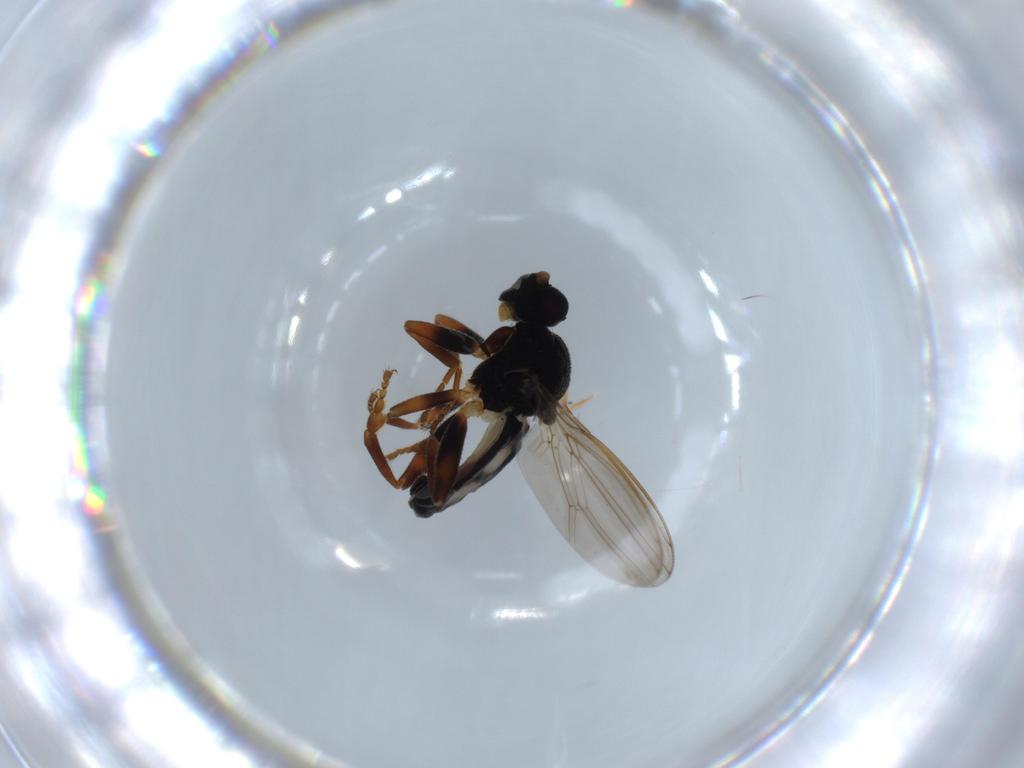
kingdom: Animalia
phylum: Arthropoda
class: Insecta
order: Diptera
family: Sphaeroceridae
